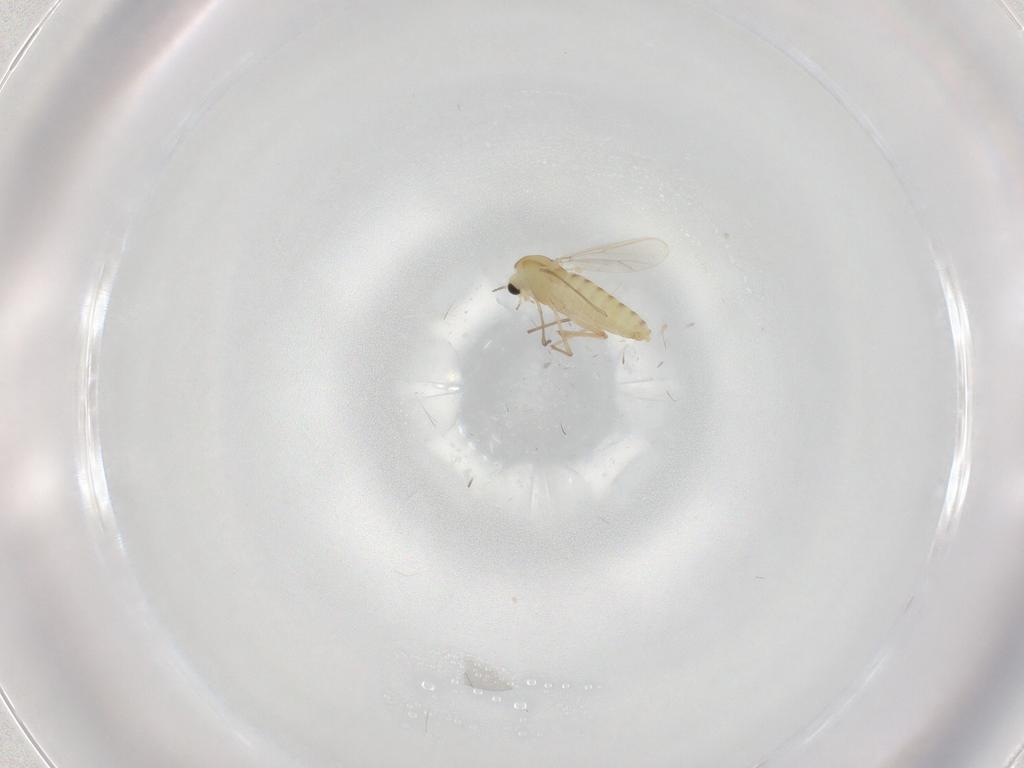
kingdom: Animalia
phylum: Arthropoda
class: Insecta
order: Diptera
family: Chironomidae
